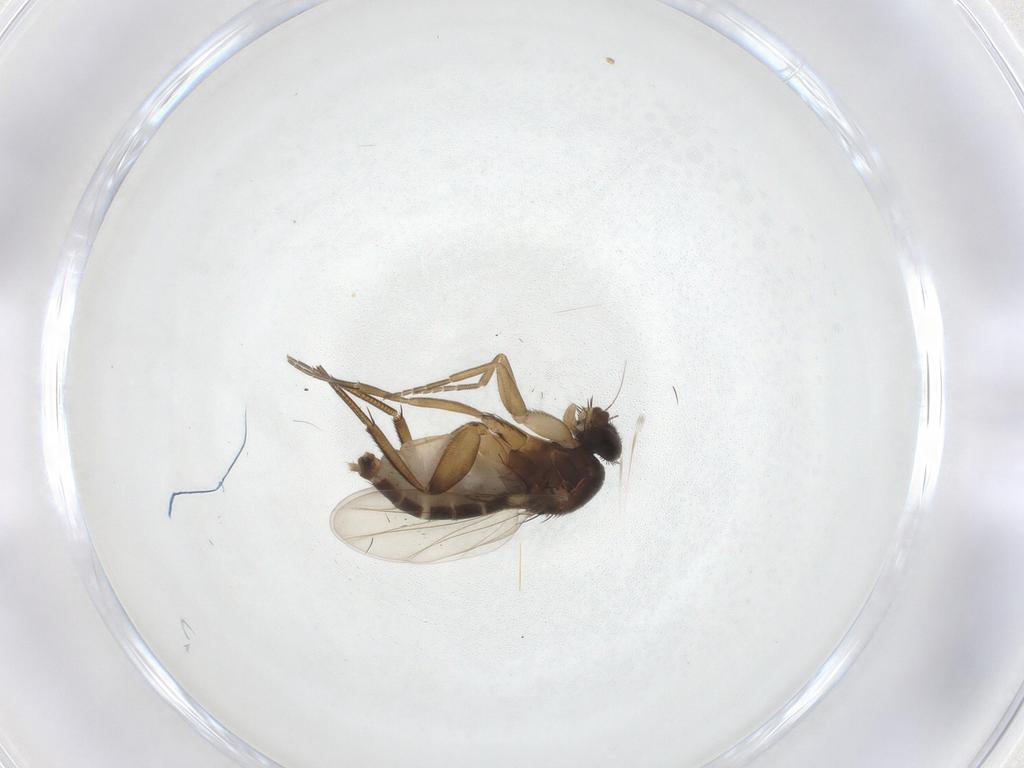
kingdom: Animalia
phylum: Arthropoda
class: Insecta
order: Diptera
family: Phoridae
